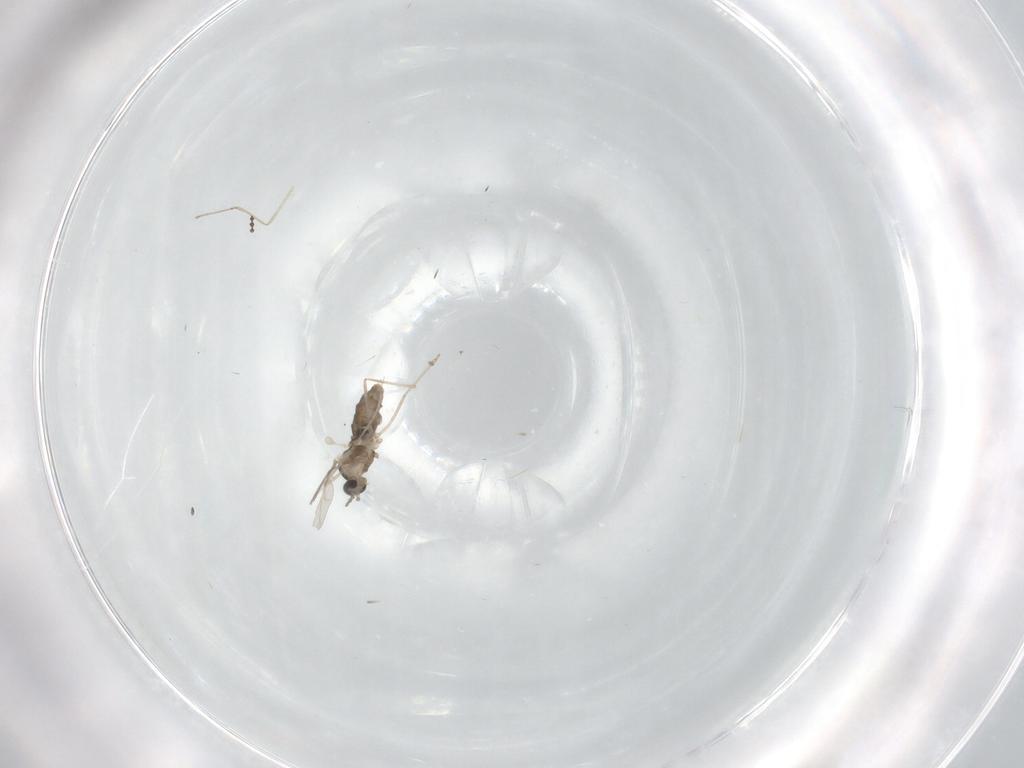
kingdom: Animalia
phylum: Arthropoda
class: Insecta
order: Diptera
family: Cecidomyiidae
